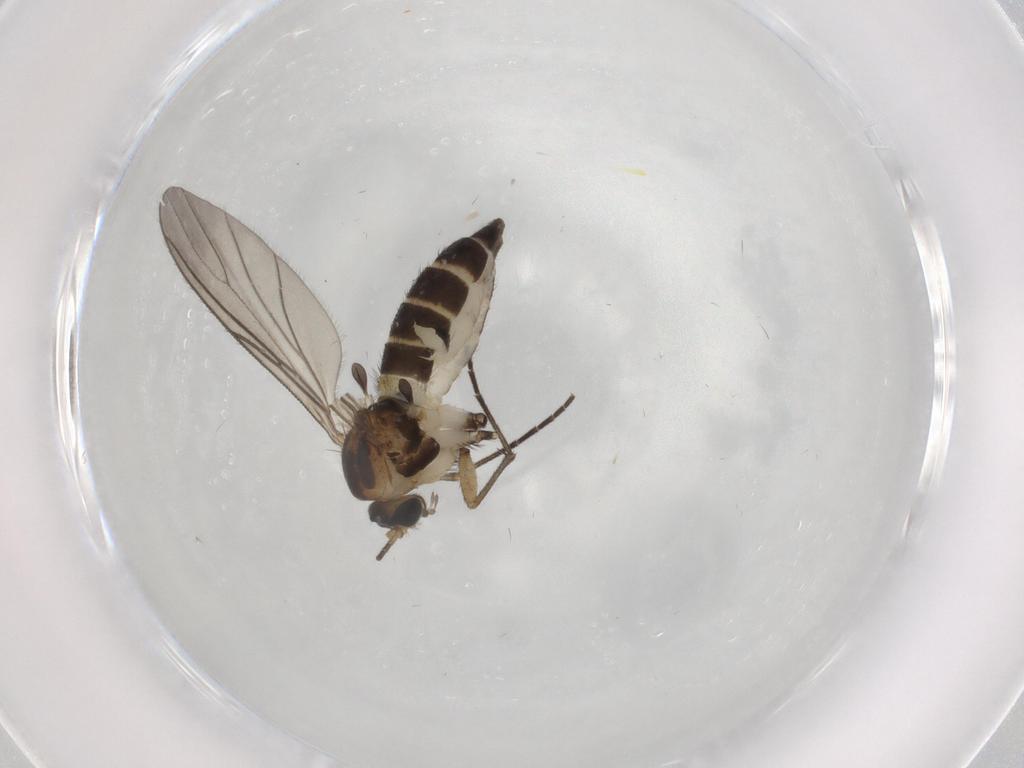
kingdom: Animalia
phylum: Arthropoda
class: Insecta
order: Diptera
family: Sciaridae
